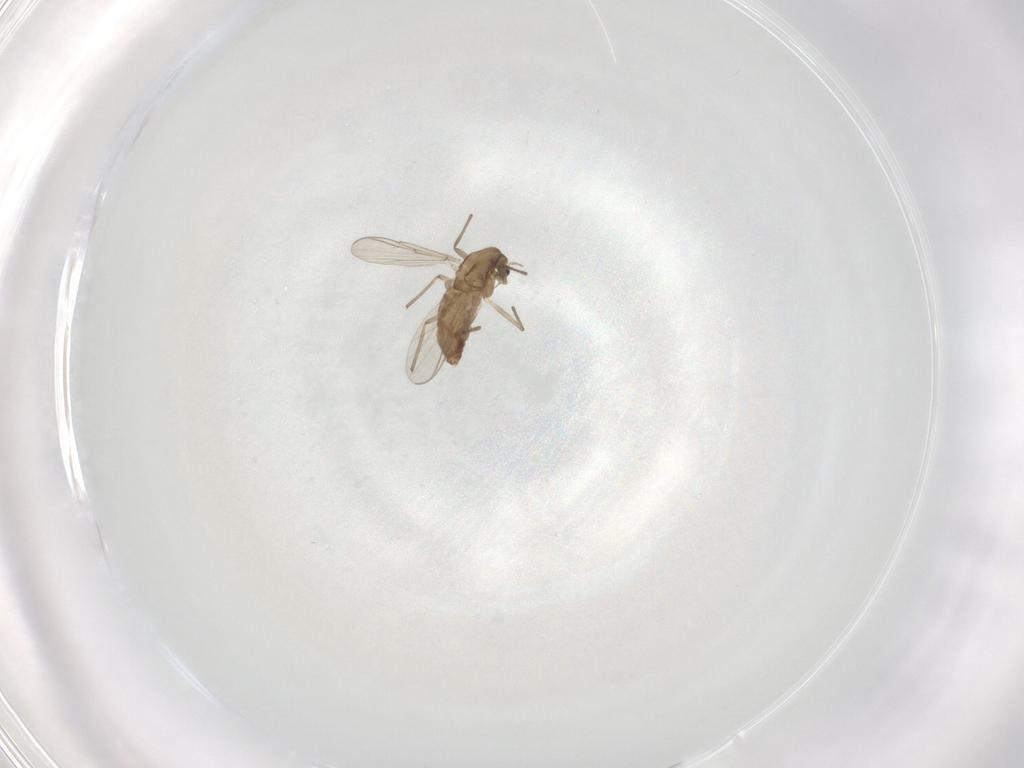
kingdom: Animalia
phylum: Arthropoda
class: Insecta
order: Diptera
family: Chironomidae
